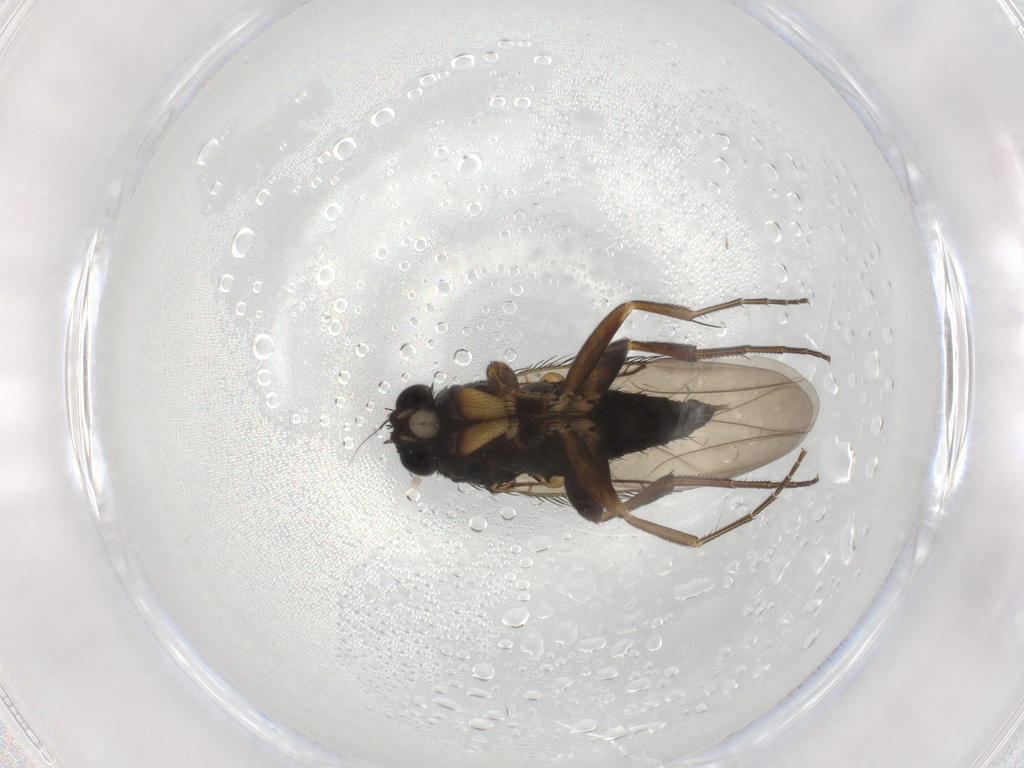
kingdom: Animalia
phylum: Arthropoda
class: Insecta
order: Diptera
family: Phoridae
